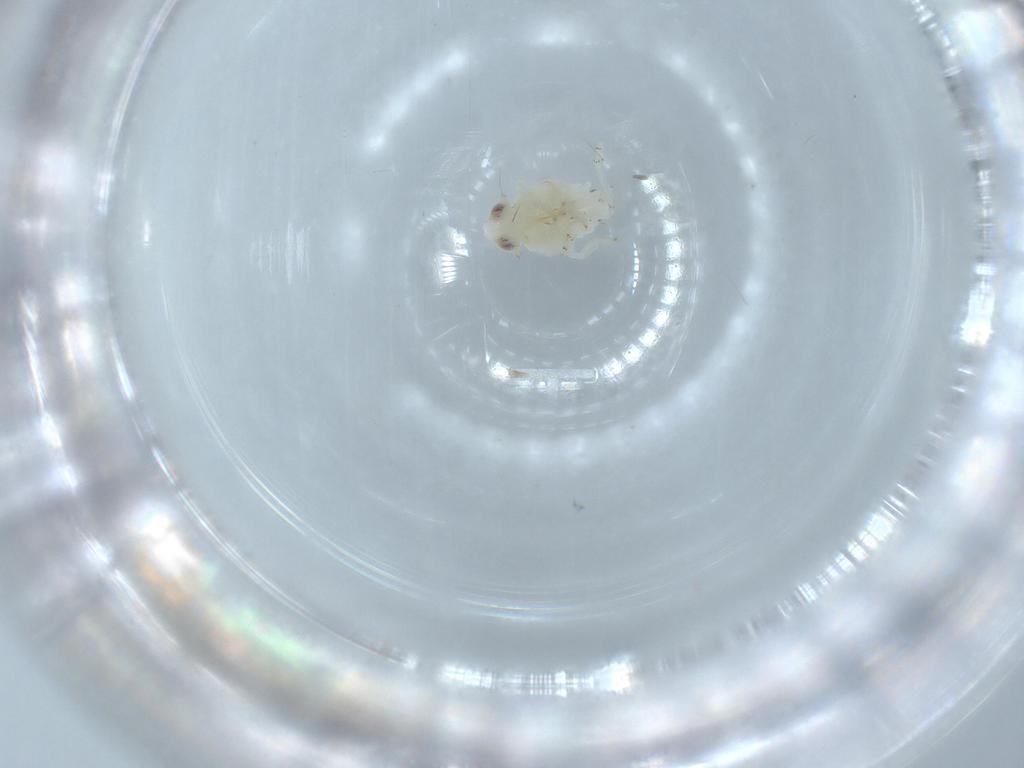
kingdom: Animalia
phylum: Arthropoda
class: Insecta
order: Hemiptera
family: Nogodinidae
